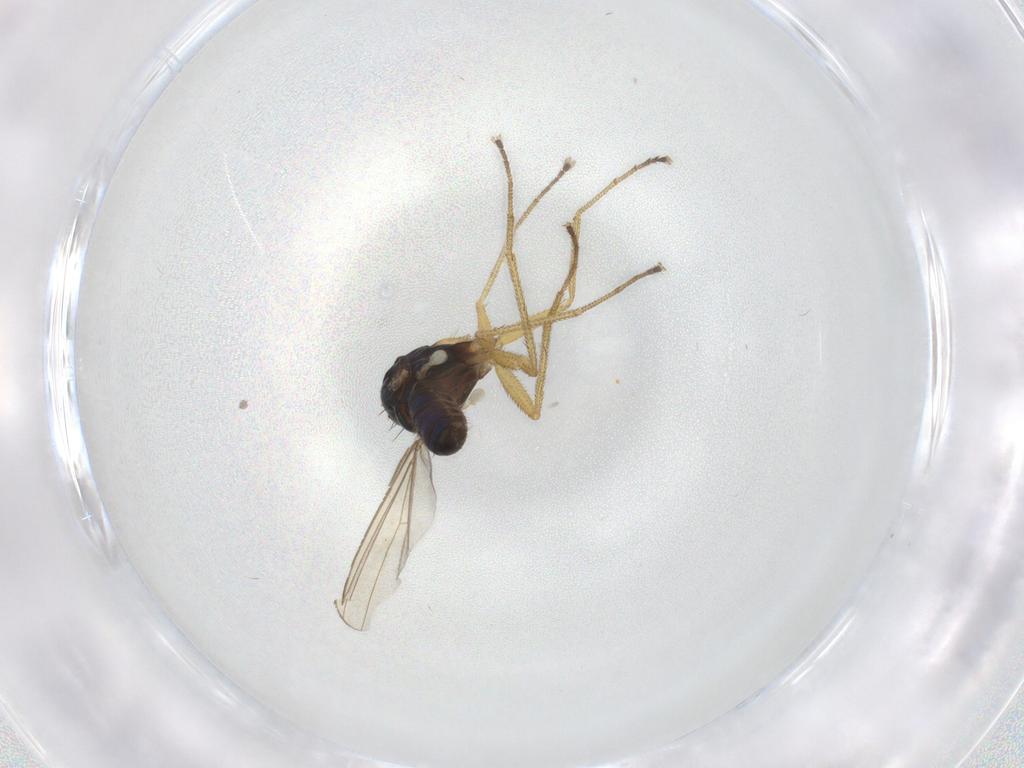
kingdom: Animalia
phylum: Arthropoda
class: Insecta
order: Diptera
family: Dolichopodidae
